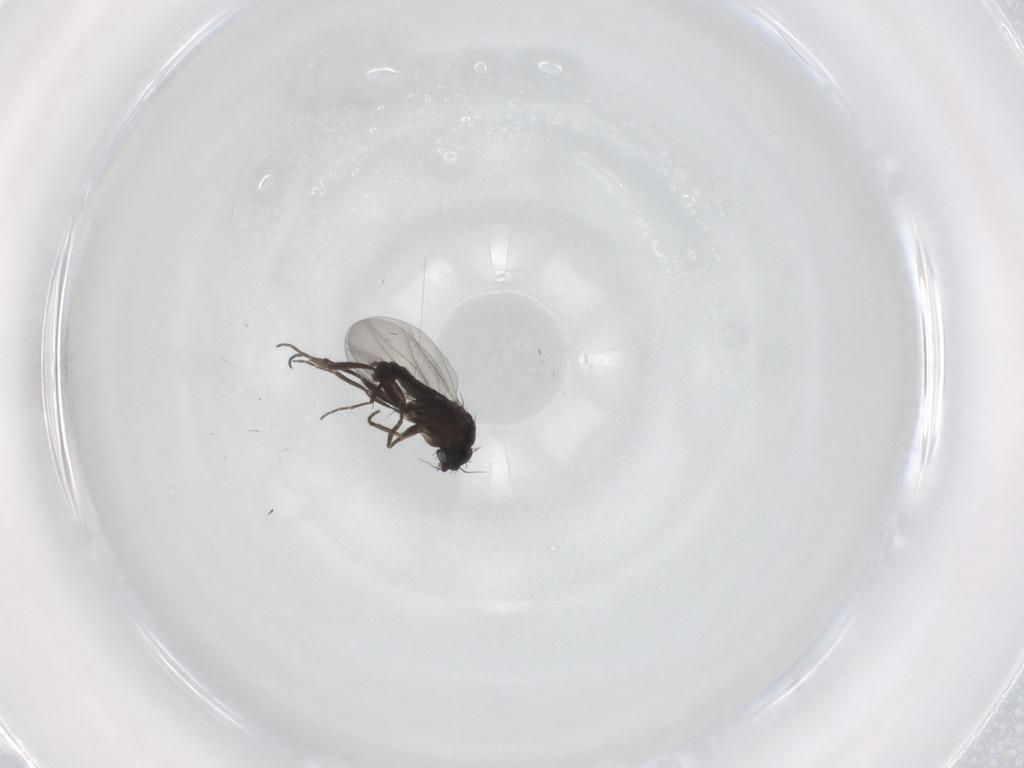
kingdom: Animalia
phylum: Arthropoda
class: Insecta
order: Diptera
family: Phoridae
